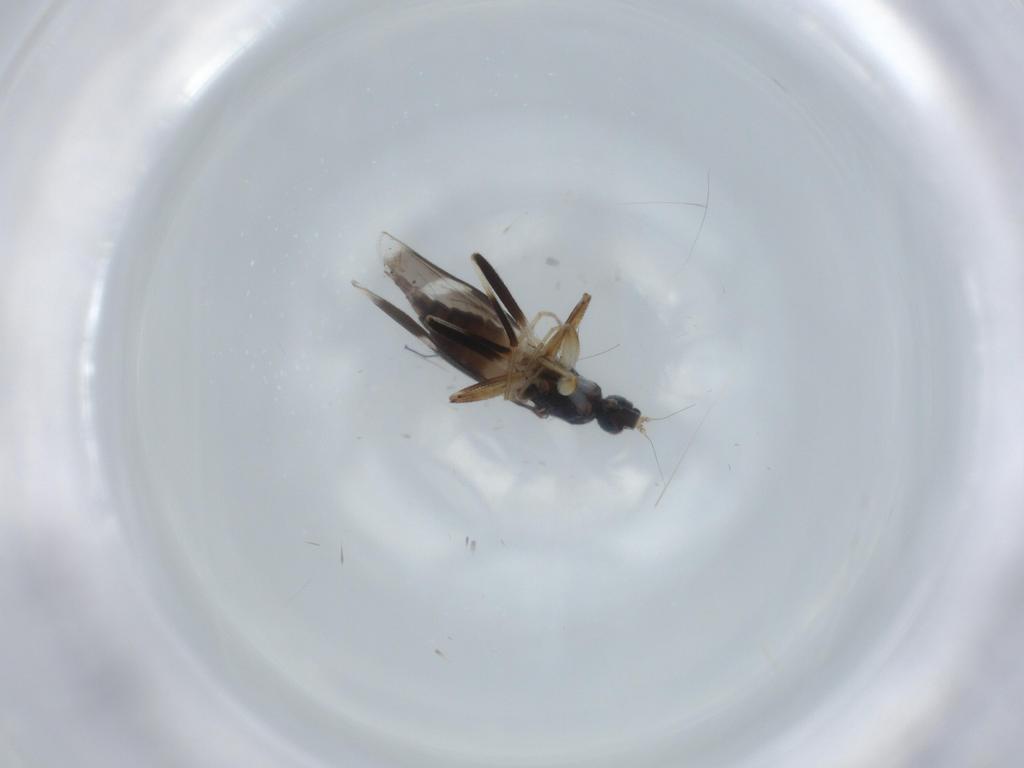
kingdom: Animalia
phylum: Arthropoda
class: Insecta
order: Diptera
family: Hybotidae
